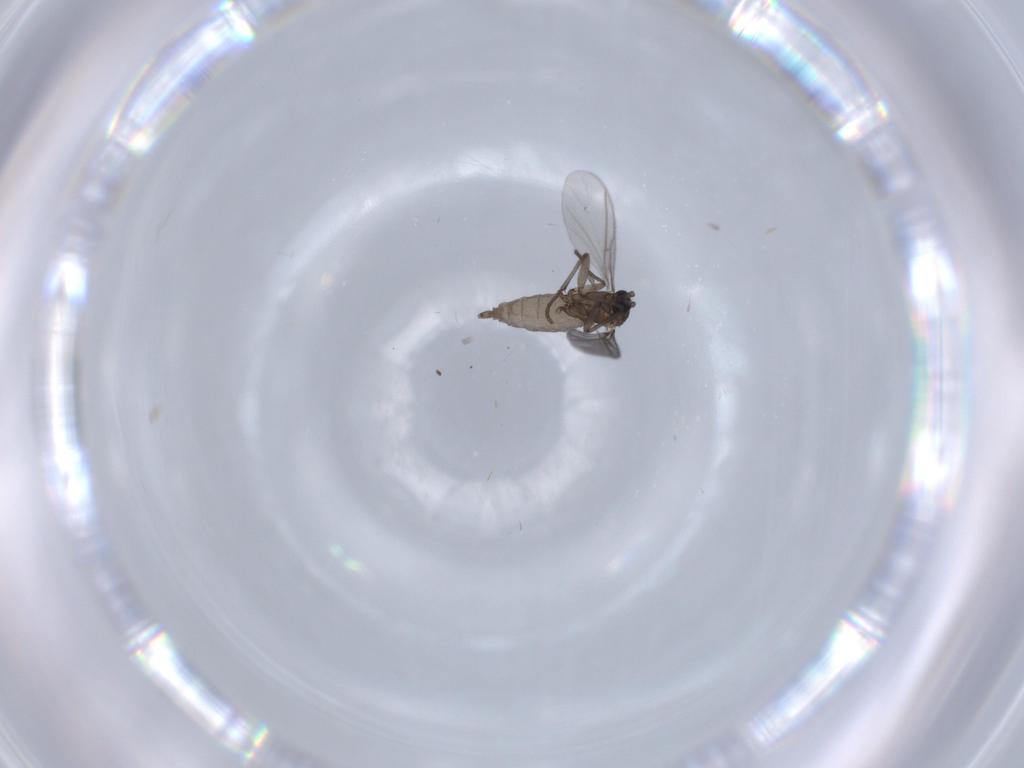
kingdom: Animalia
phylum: Arthropoda
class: Insecta
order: Diptera
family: Sciaridae
